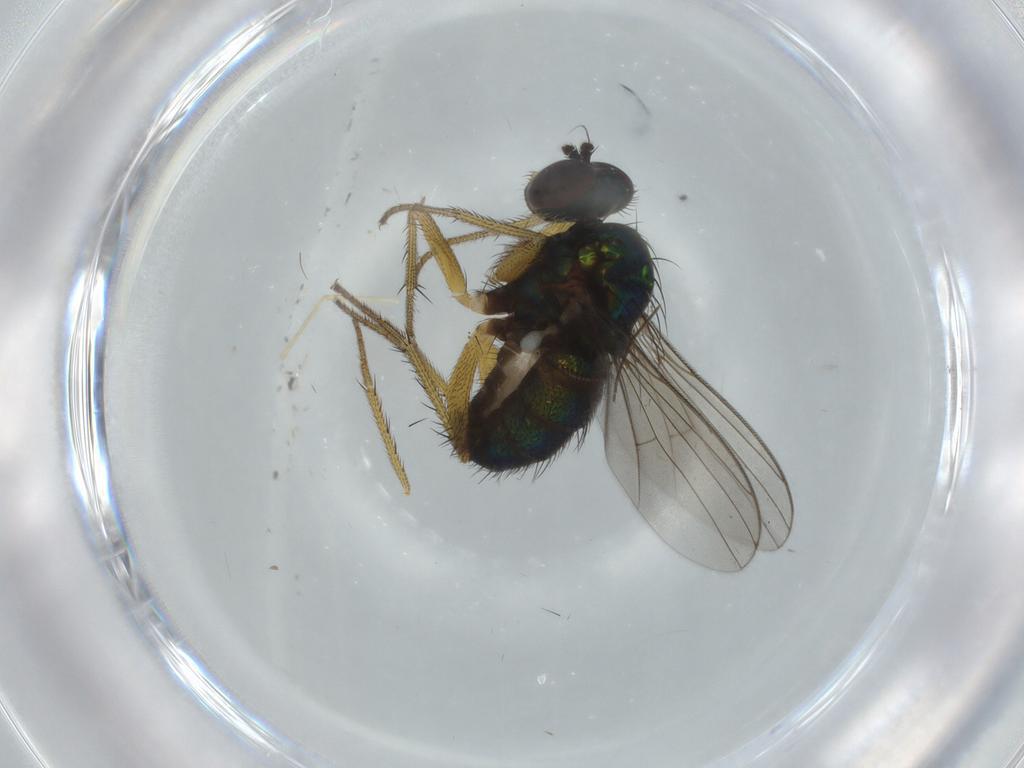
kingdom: Animalia
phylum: Arthropoda
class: Insecta
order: Diptera
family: Dolichopodidae
